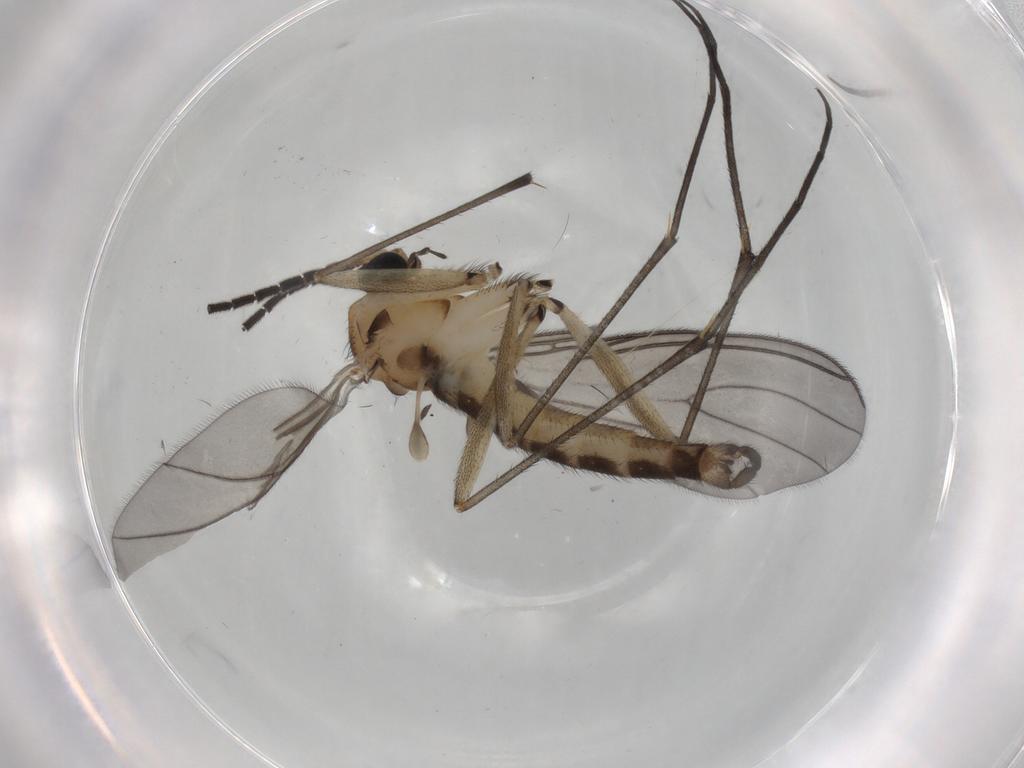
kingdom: Animalia
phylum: Arthropoda
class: Insecta
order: Diptera
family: Sciaridae
